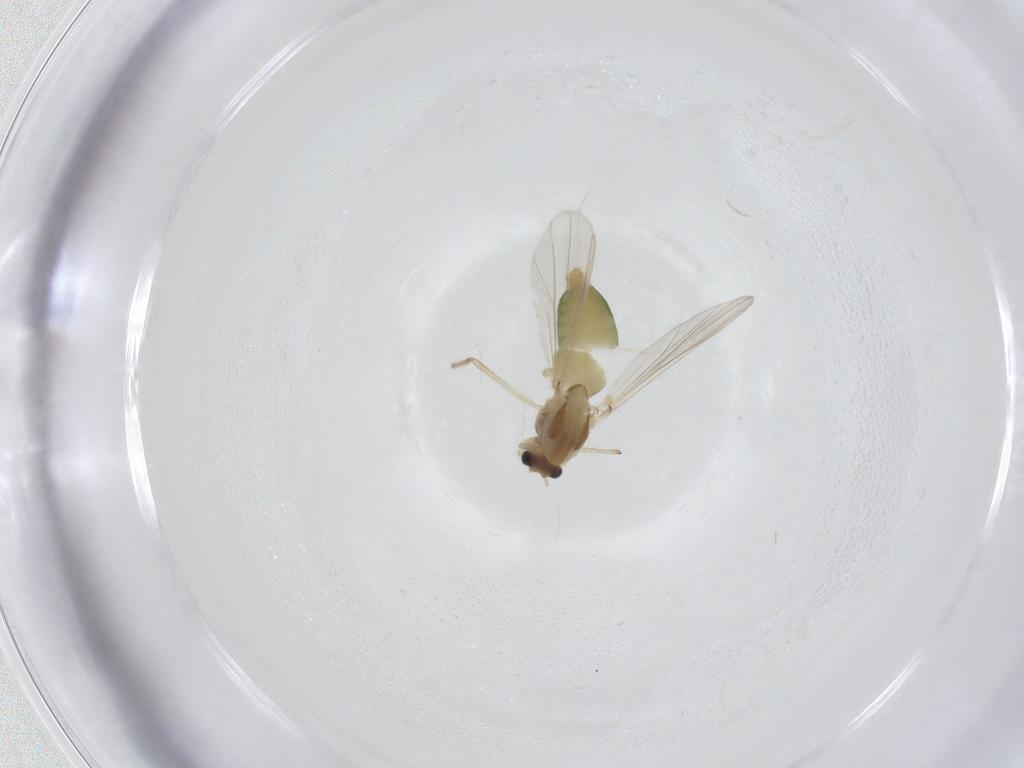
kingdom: Animalia
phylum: Arthropoda
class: Insecta
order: Diptera
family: Chironomidae
